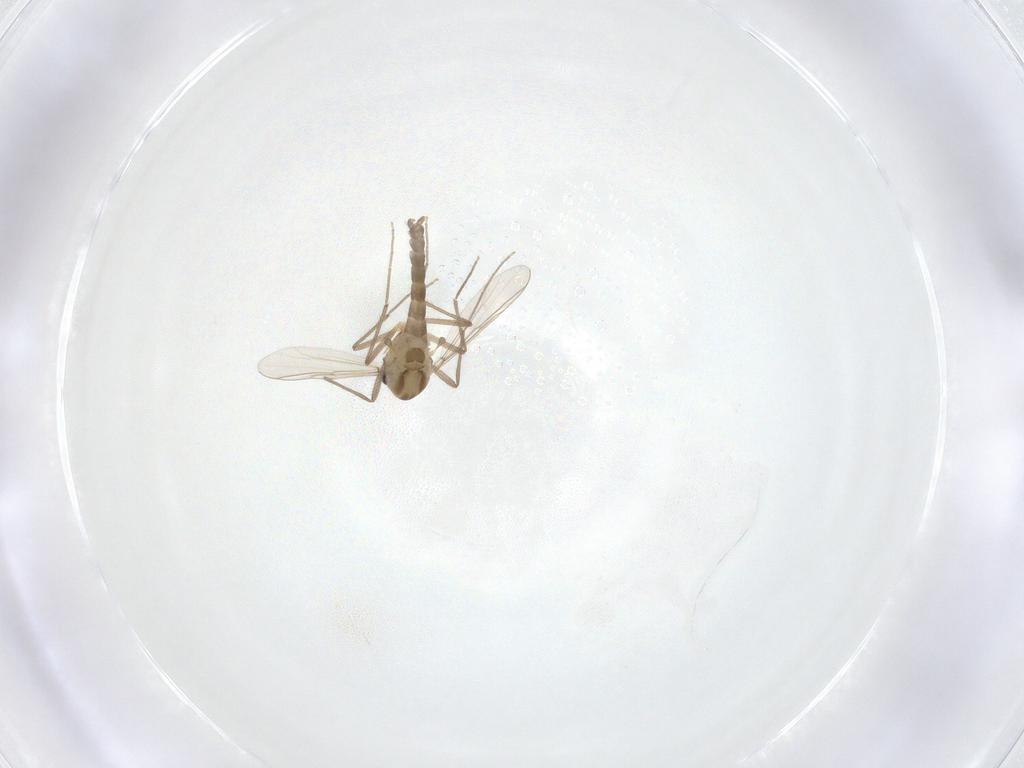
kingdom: Animalia
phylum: Arthropoda
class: Insecta
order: Diptera
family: Chironomidae
